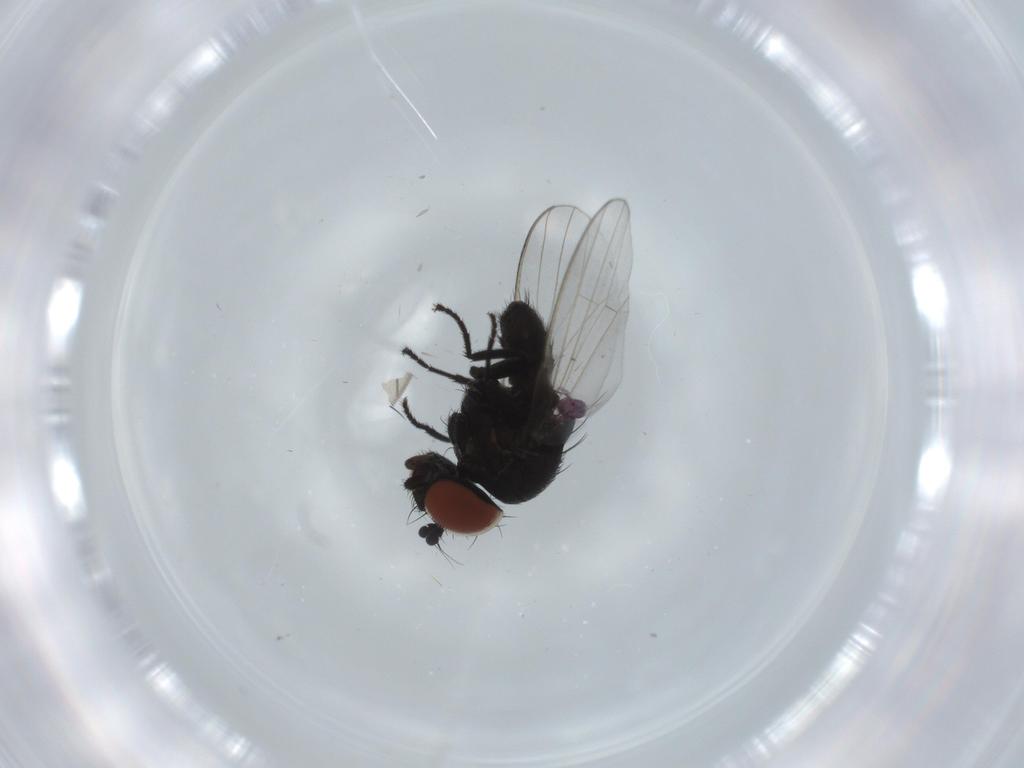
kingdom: Animalia
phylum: Arthropoda
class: Insecta
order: Diptera
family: Milichiidae
